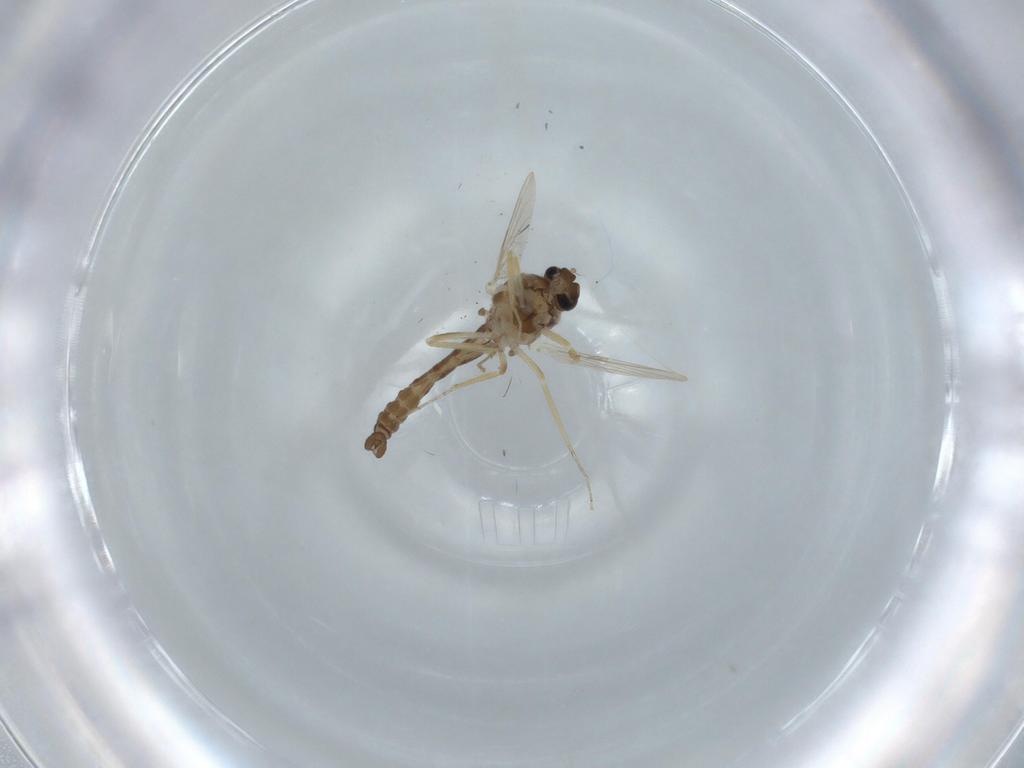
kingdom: Animalia
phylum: Arthropoda
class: Insecta
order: Diptera
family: Ceratopogonidae
